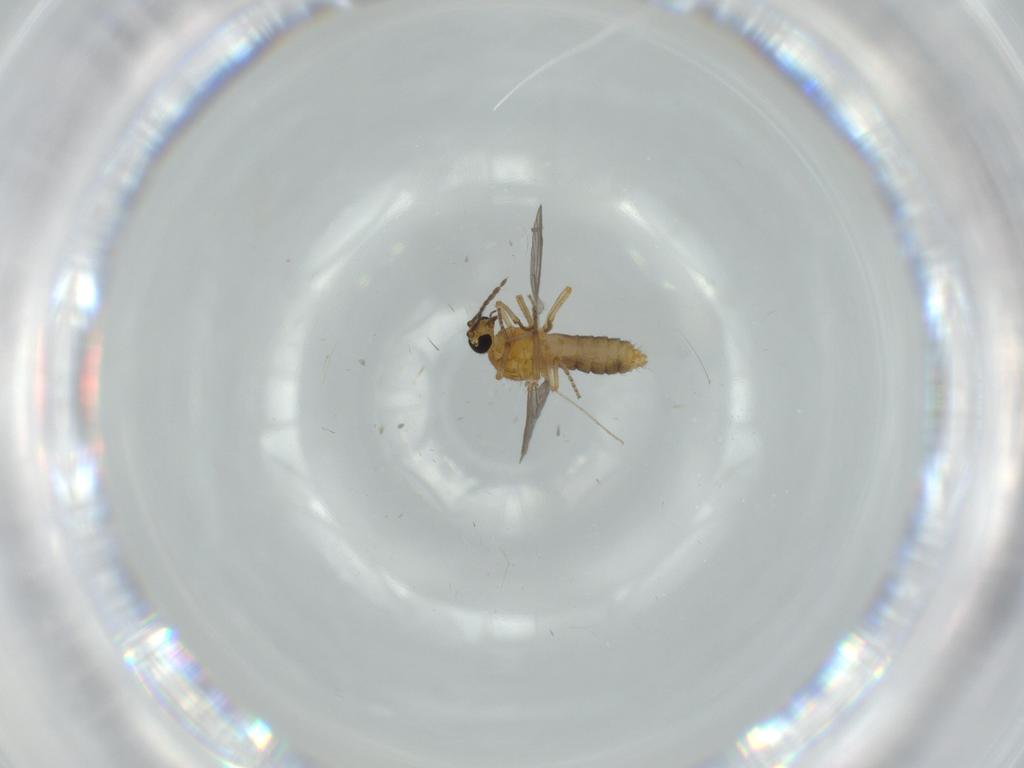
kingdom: Animalia
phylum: Arthropoda
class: Insecta
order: Diptera
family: Ceratopogonidae
